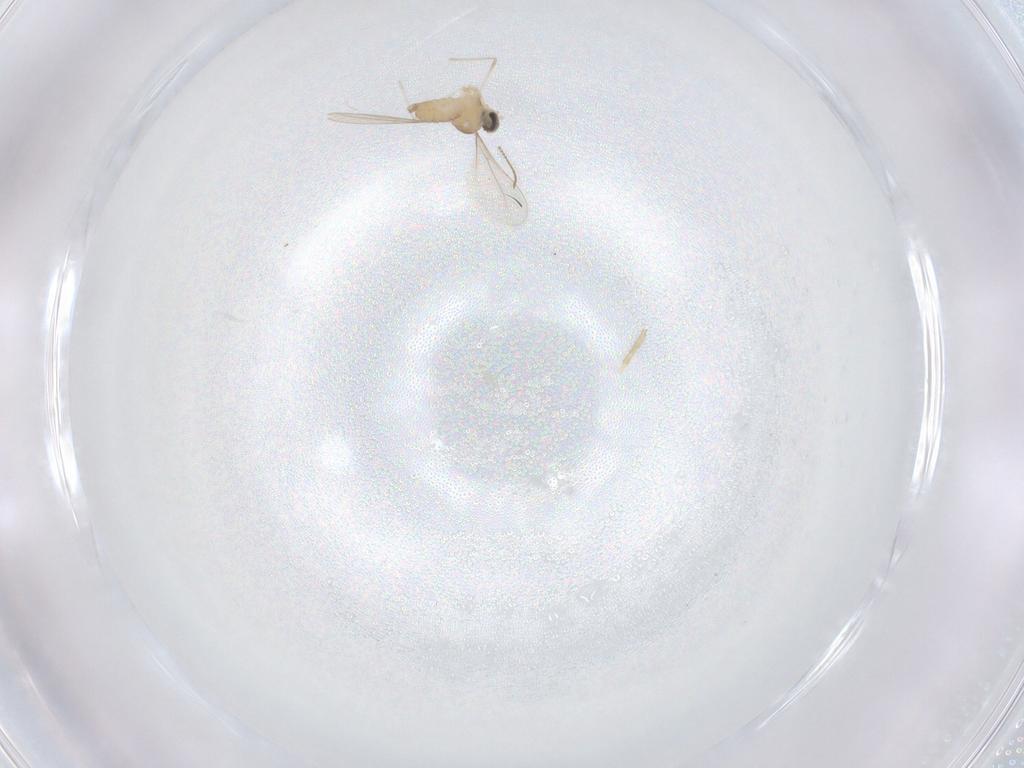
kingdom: Animalia
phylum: Arthropoda
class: Insecta
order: Diptera
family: Cecidomyiidae
